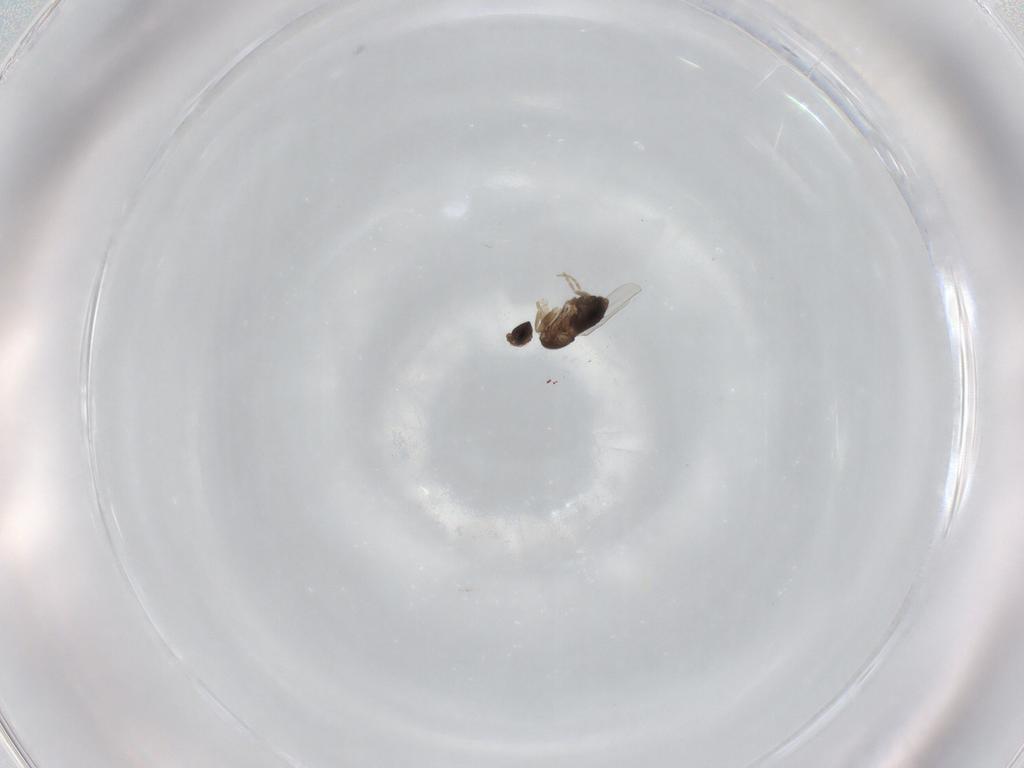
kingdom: Animalia
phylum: Arthropoda
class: Insecta
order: Diptera
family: Phoridae
